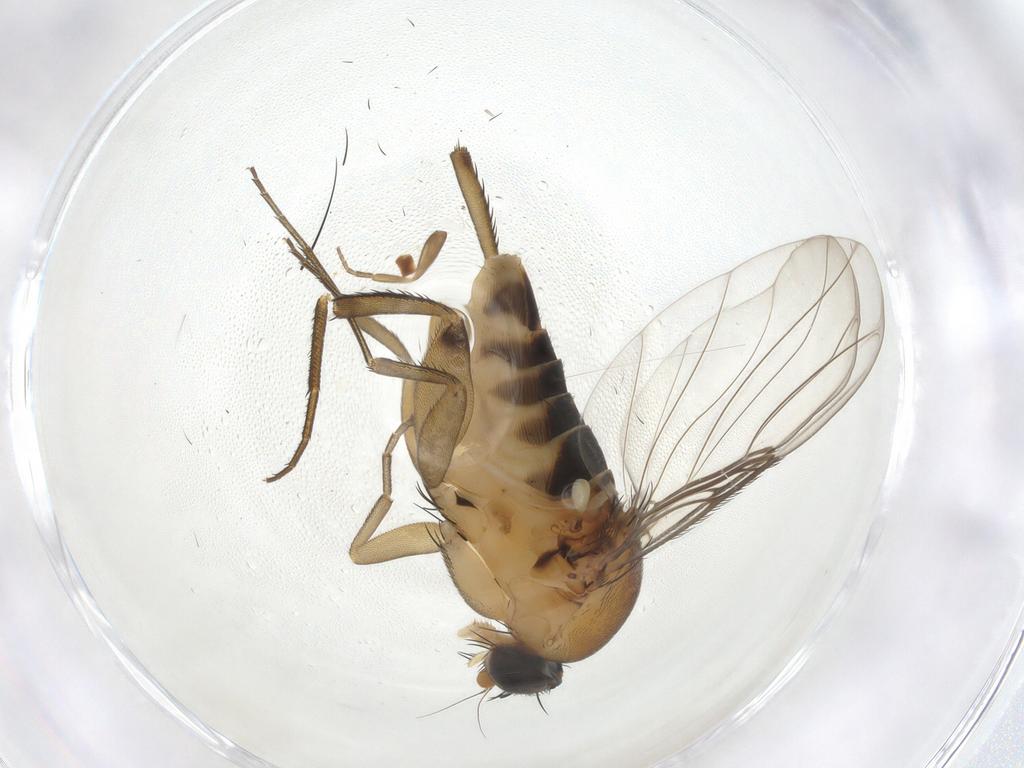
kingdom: Animalia
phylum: Arthropoda
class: Insecta
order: Diptera
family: Phoridae
